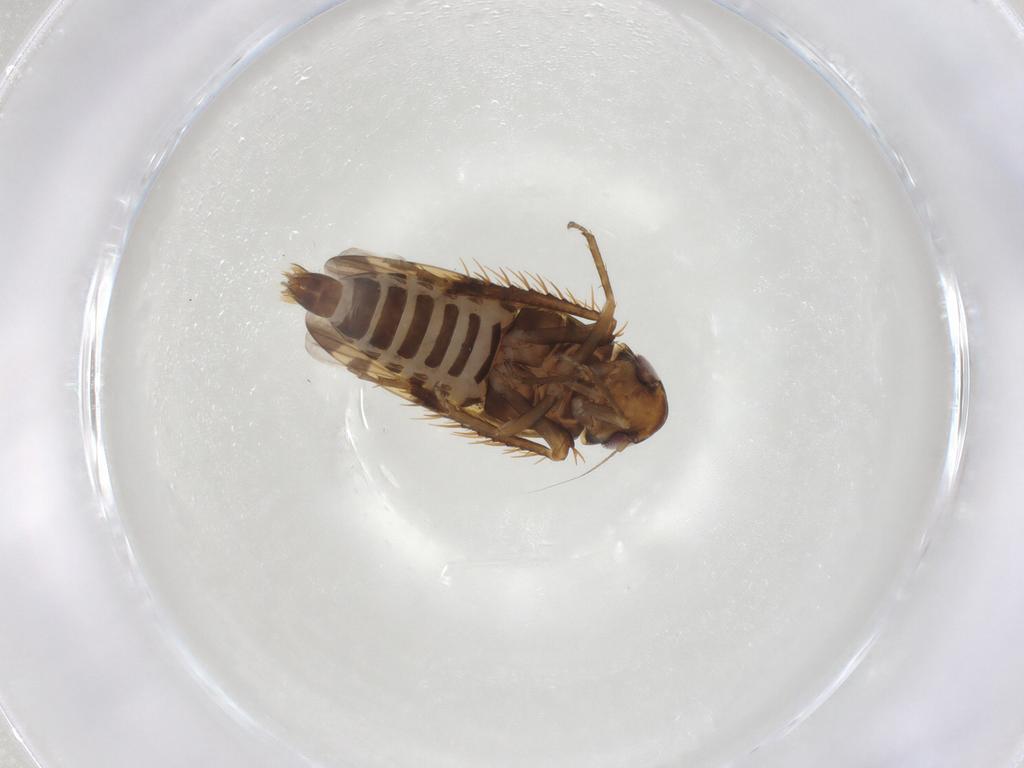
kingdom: Animalia
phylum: Arthropoda
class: Insecta
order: Hemiptera
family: Cicadellidae
